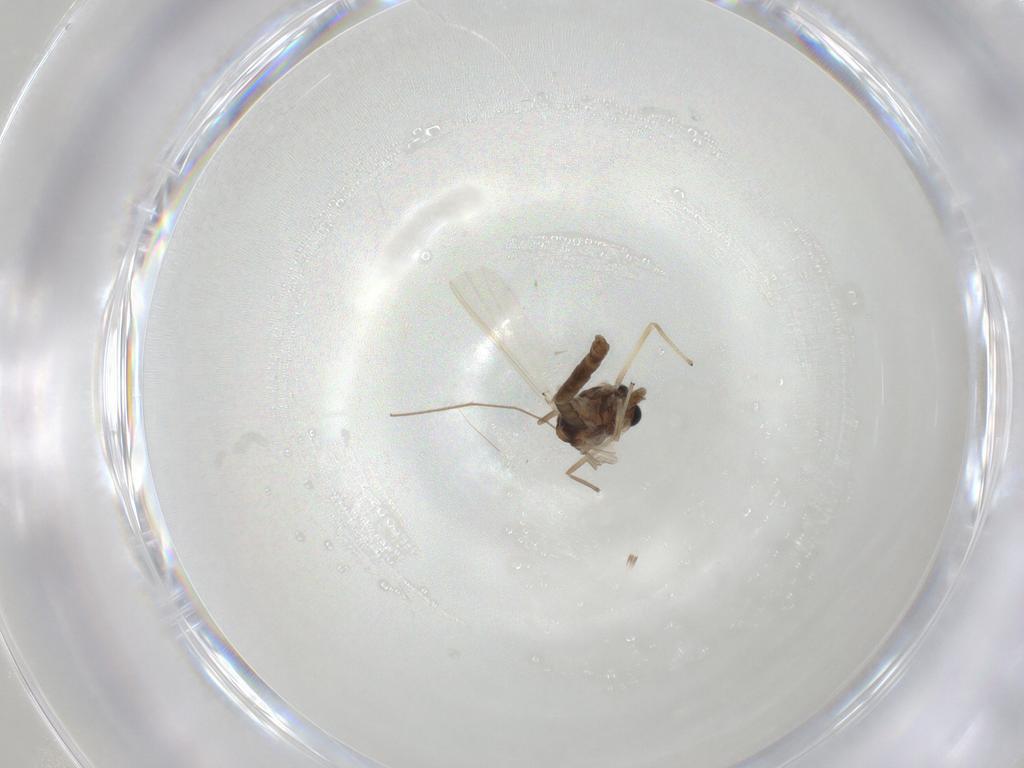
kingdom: Animalia
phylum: Arthropoda
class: Insecta
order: Diptera
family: Chironomidae
